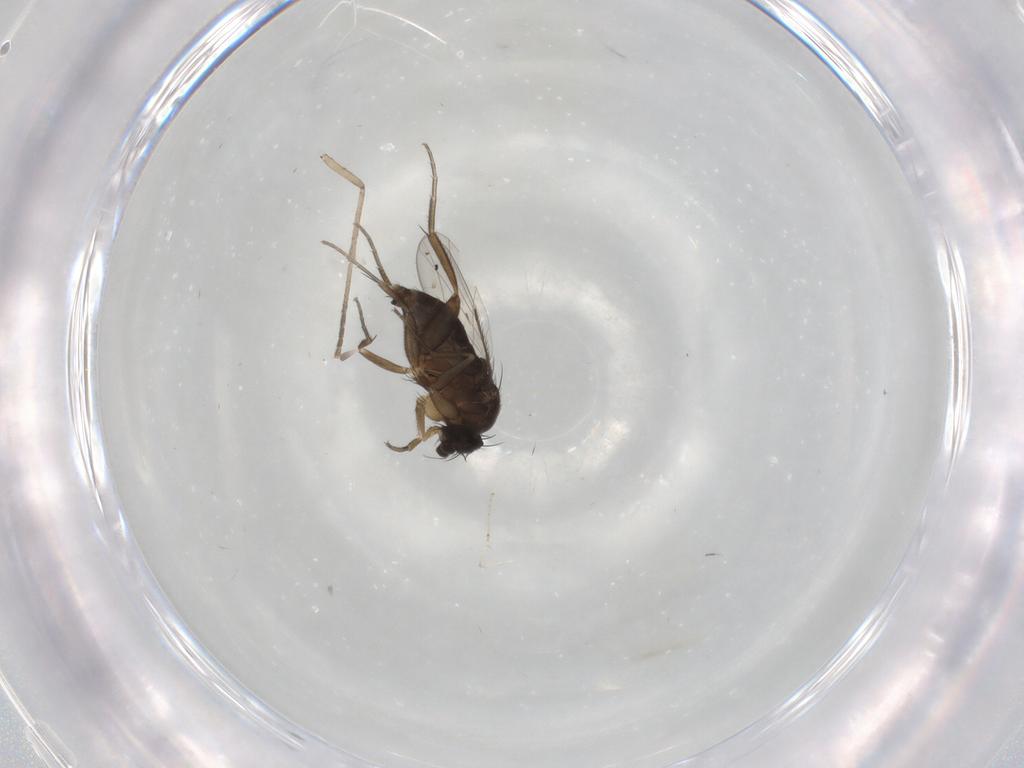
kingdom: Animalia
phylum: Arthropoda
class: Insecta
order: Diptera
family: Phoridae
